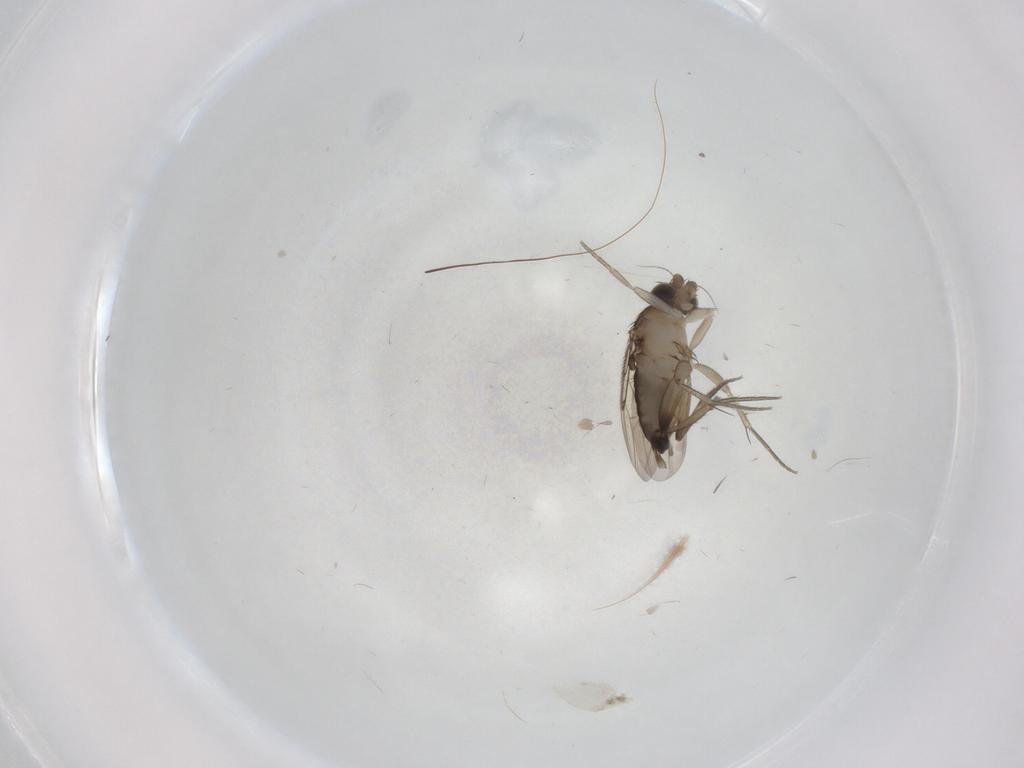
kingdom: Animalia
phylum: Arthropoda
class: Insecta
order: Diptera
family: Phoridae
